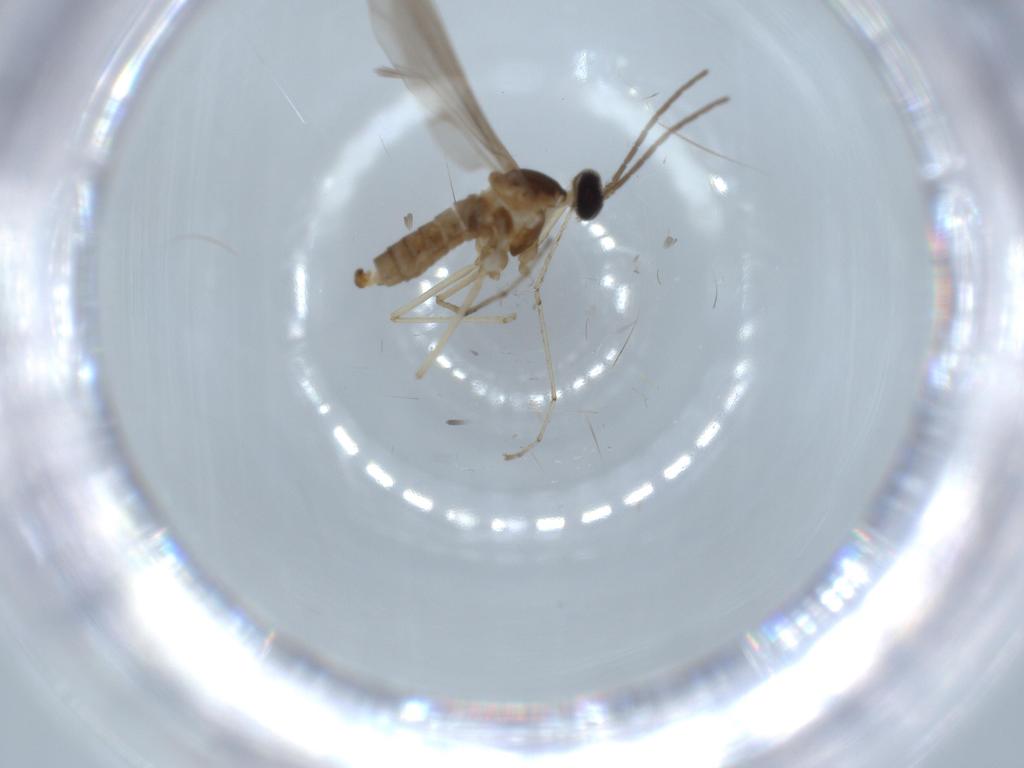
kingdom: Animalia
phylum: Arthropoda
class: Insecta
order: Diptera
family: Cecidomyiidae
